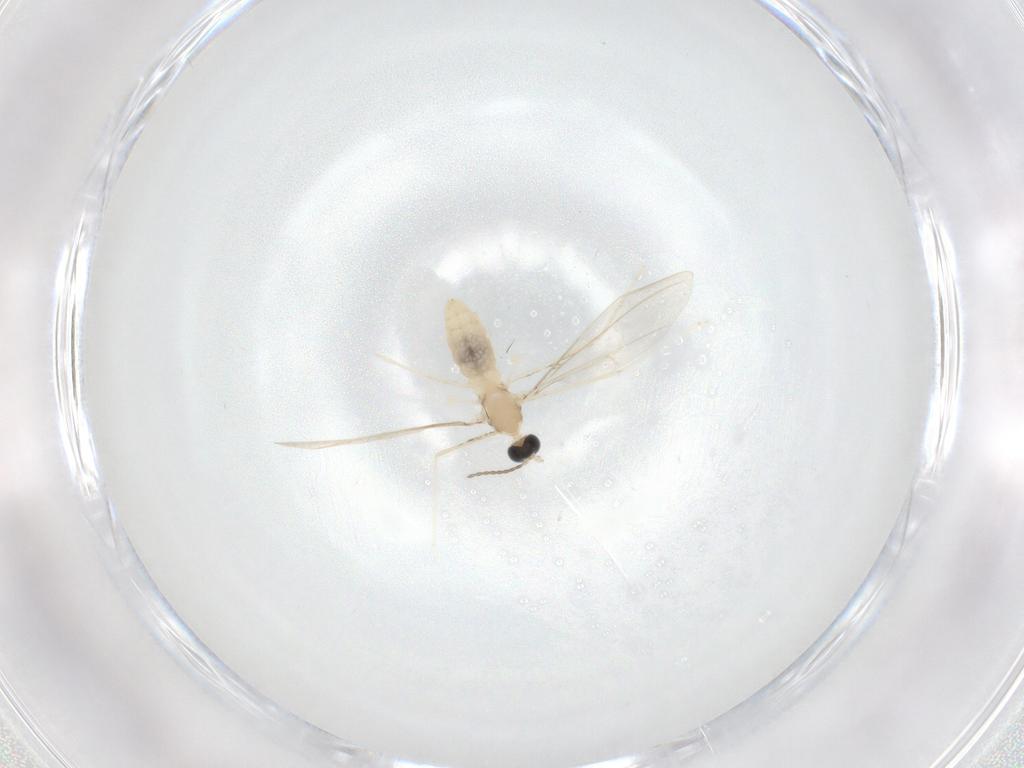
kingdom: Animalia
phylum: Arthropoda
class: Insecta
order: Diptera
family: Cecidomyiidae
